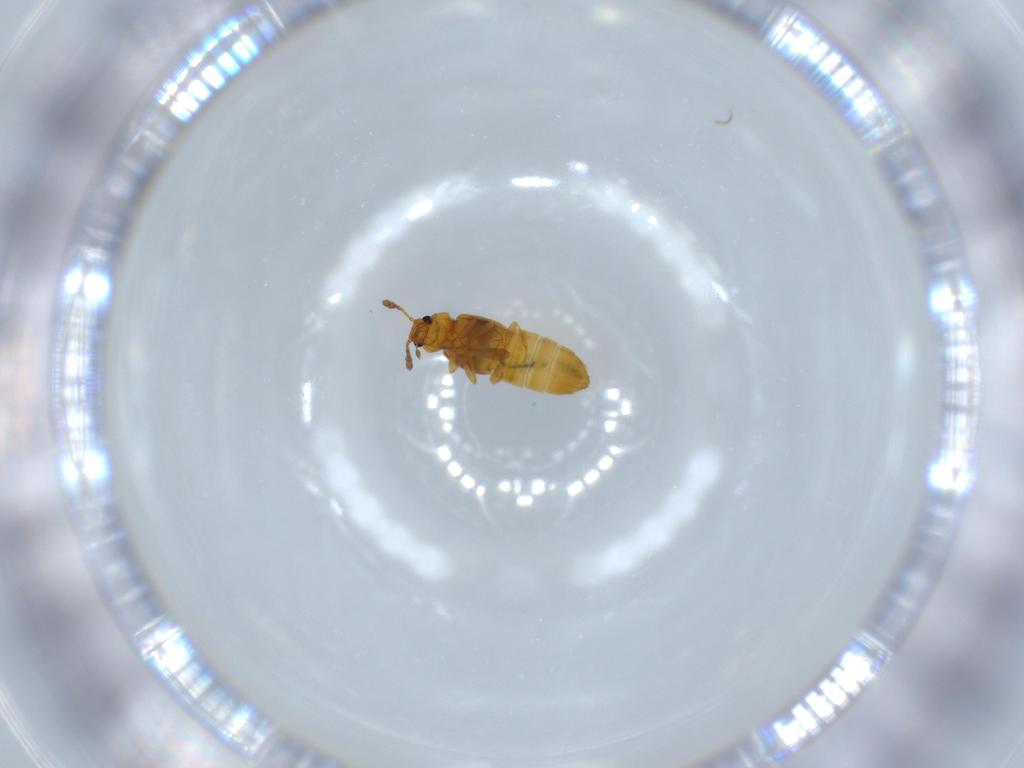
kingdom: Animalia
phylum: Arthropoda
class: Insecta
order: Coleoptera
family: Staphylinidae
